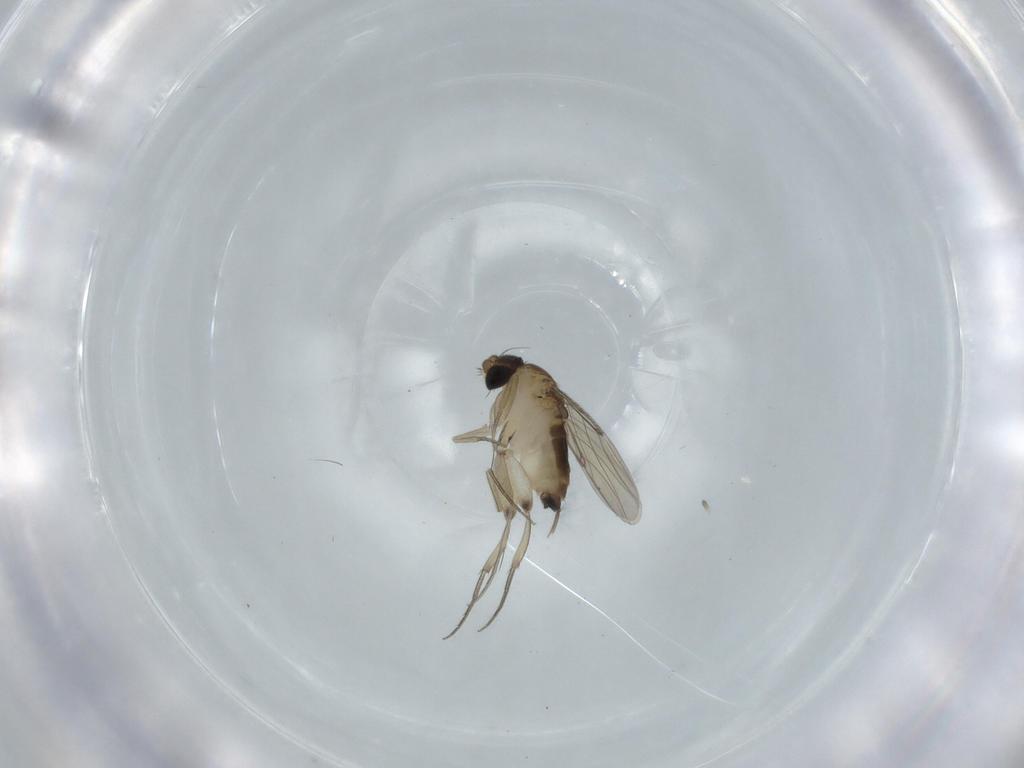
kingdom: Animalia
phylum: Arthropoda
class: Insecta
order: Diptera
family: Phoridae
